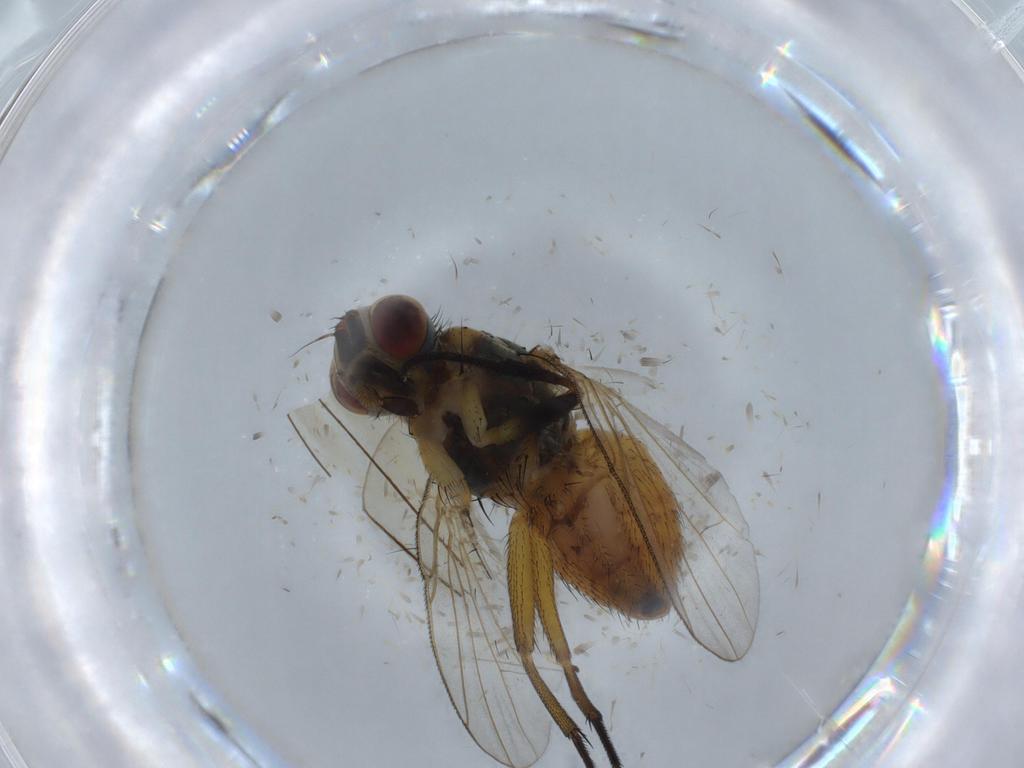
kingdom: Animalia
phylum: Arthropoda
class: Insecta
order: Diptera
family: Muscidae
